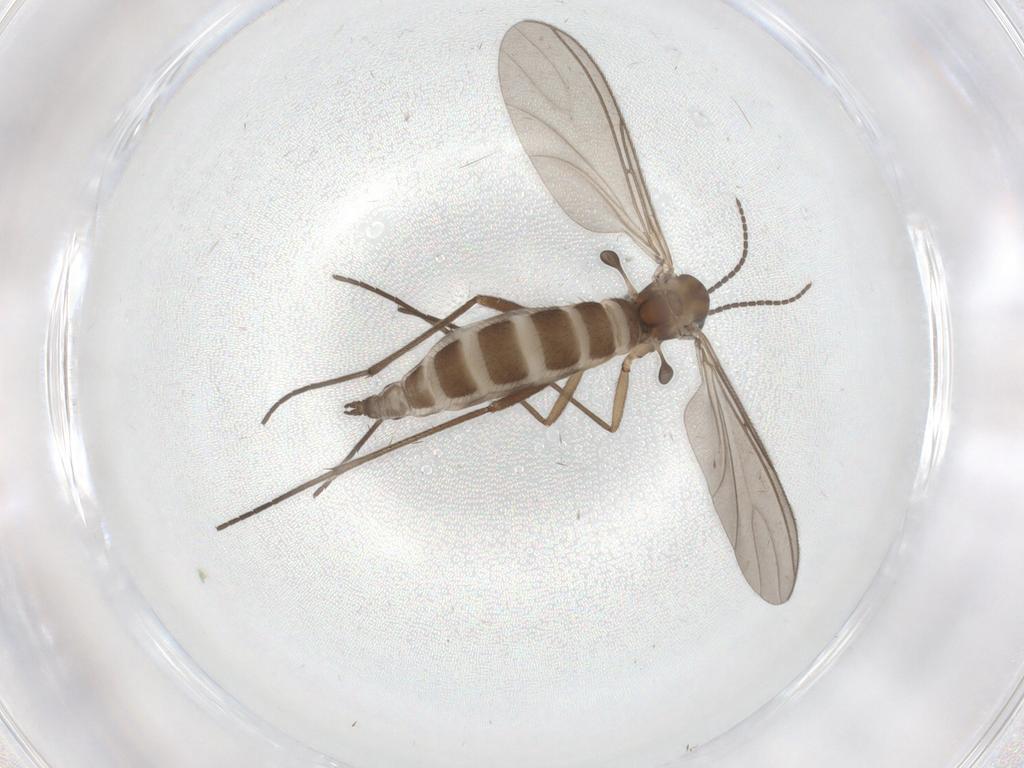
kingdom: Animalia
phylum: Arthropoda
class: Insecta
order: Diptera
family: Sciaridae
